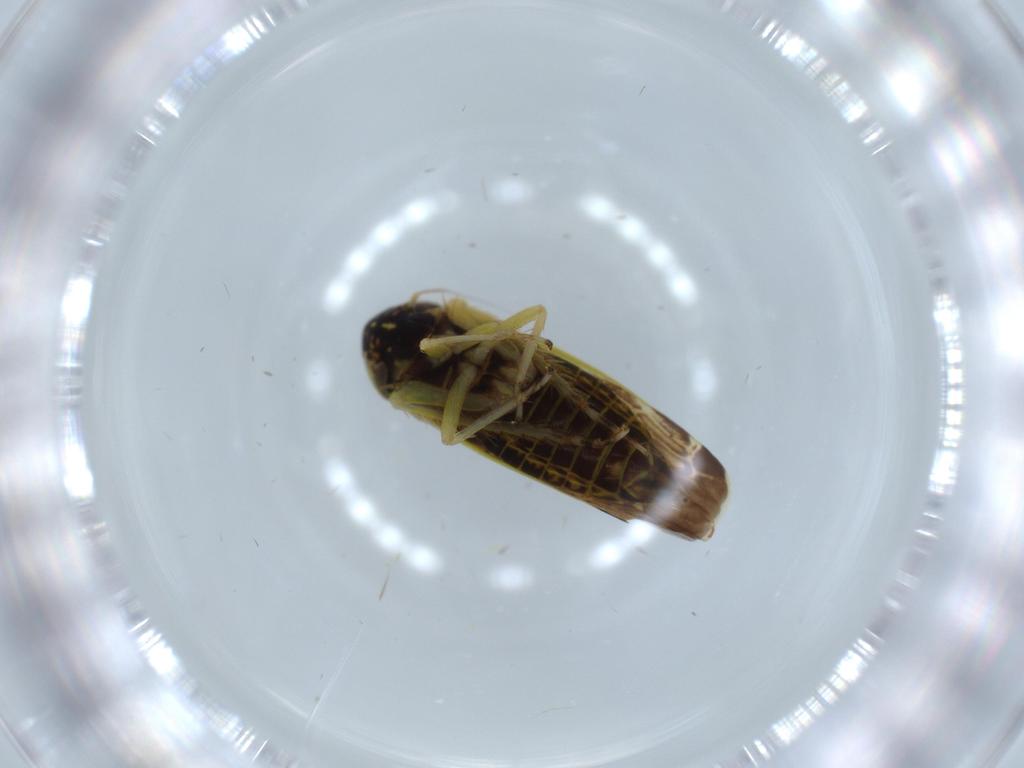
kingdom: Animalia
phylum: Arthropoda
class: Insecta
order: Hemiptera
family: Cicadellidae
